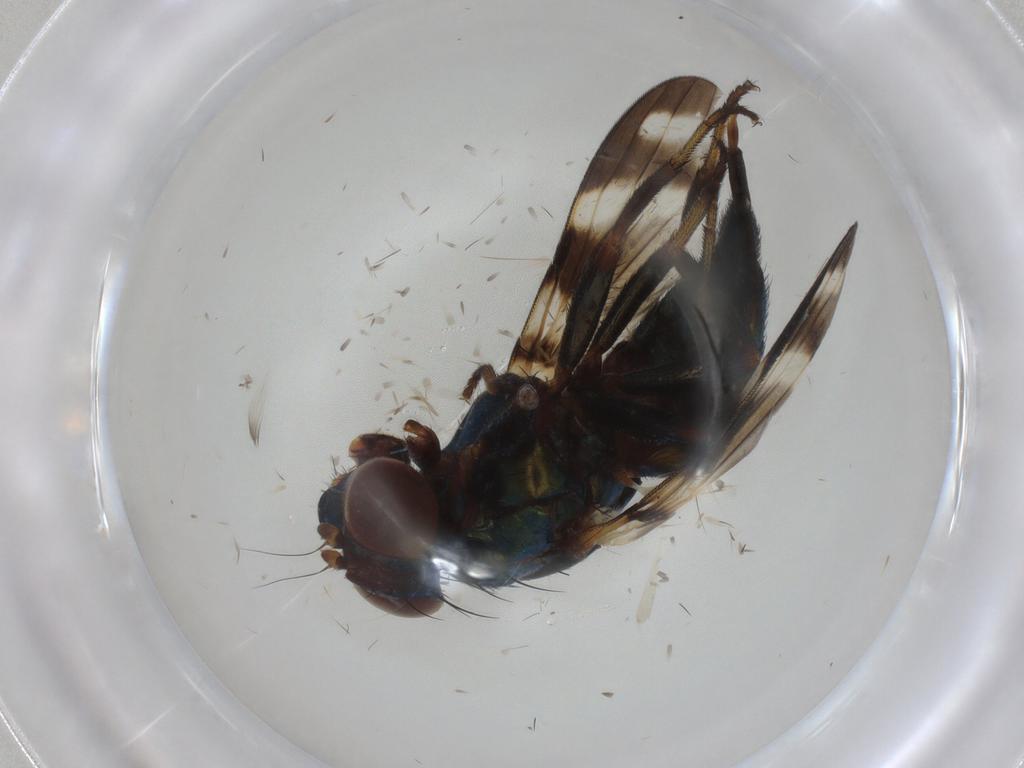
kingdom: Animalia
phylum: Arthropoda
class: Insecta
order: Diptera
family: Ulidiidae
